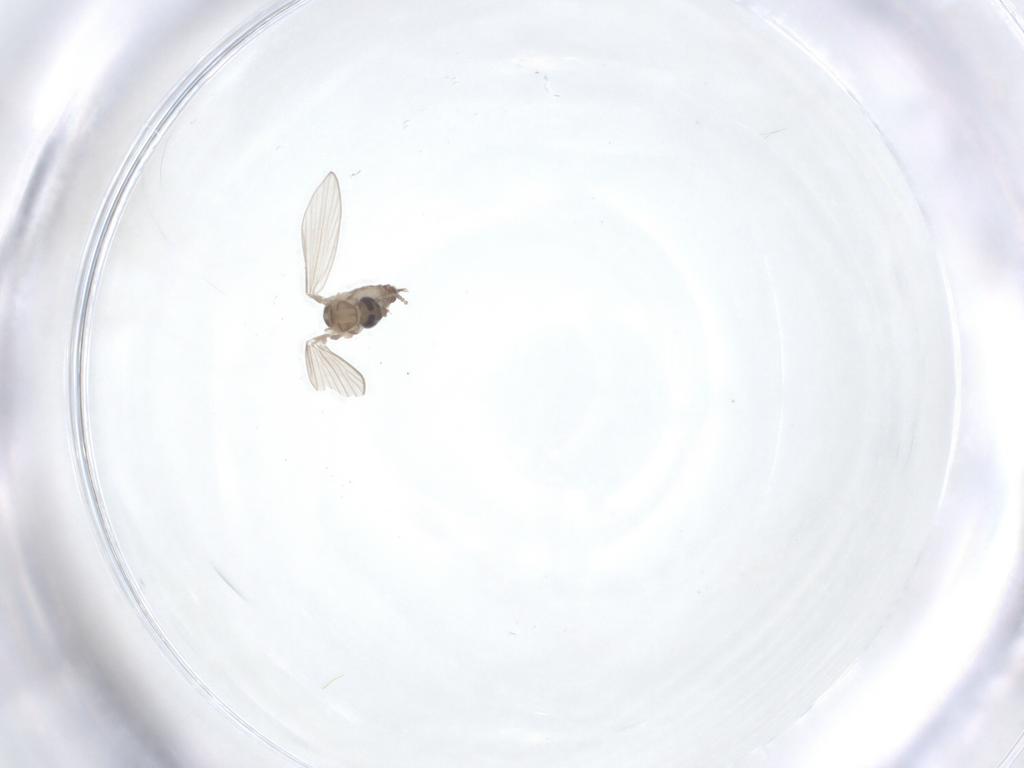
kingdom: Animalia
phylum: Arthropoda
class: Insecta
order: Diptera
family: Psychodidae
